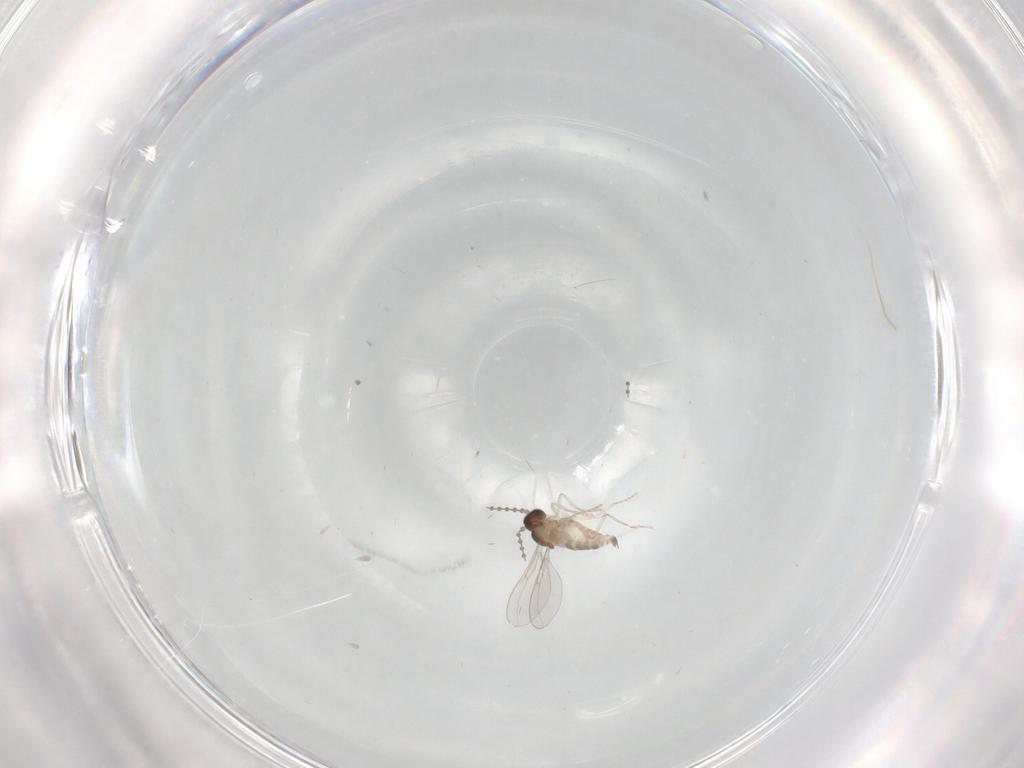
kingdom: Animalia
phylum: Arthropoda
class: Insecta
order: Diptera
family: Cecidomyiidae
